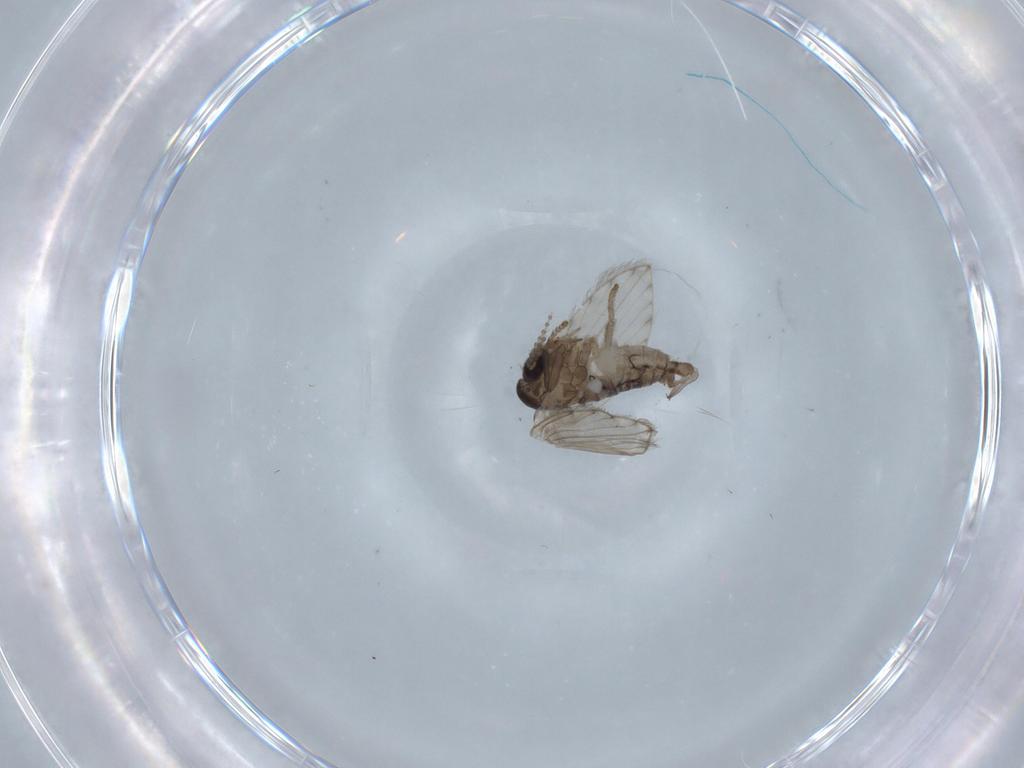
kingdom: Animalia
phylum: Arthropoda
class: Insecta
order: Diptera
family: Psychodidae
